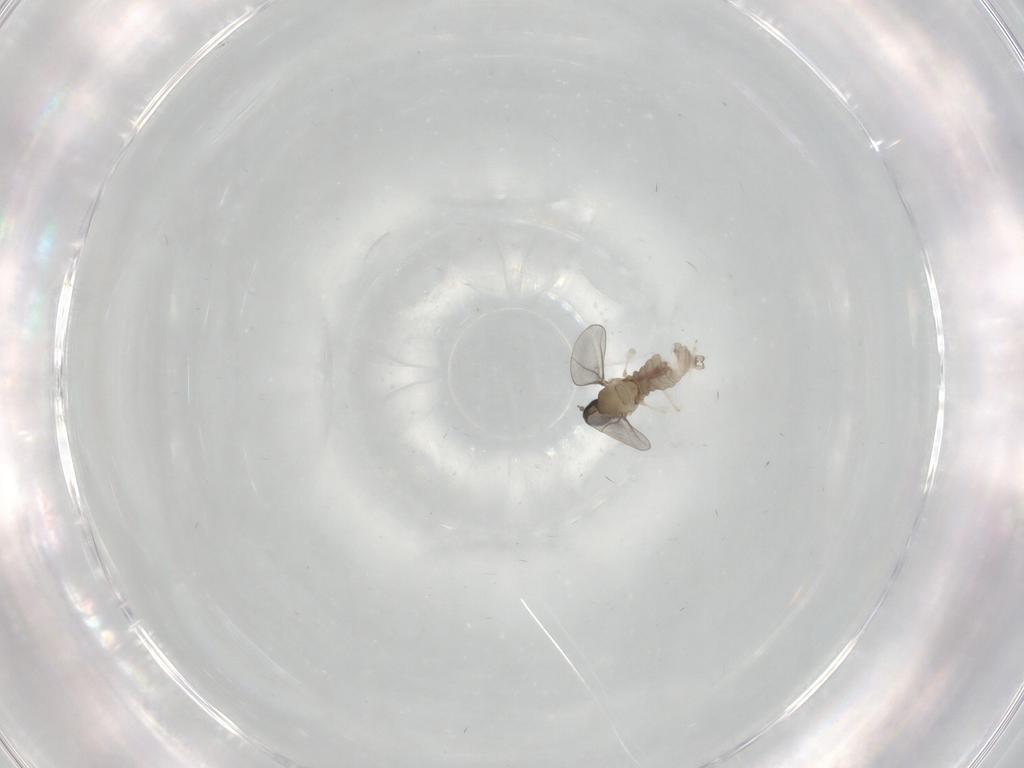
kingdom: Animalia
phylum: Arthropoda
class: Insecta
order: Diptera
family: Cecidomyiidae
